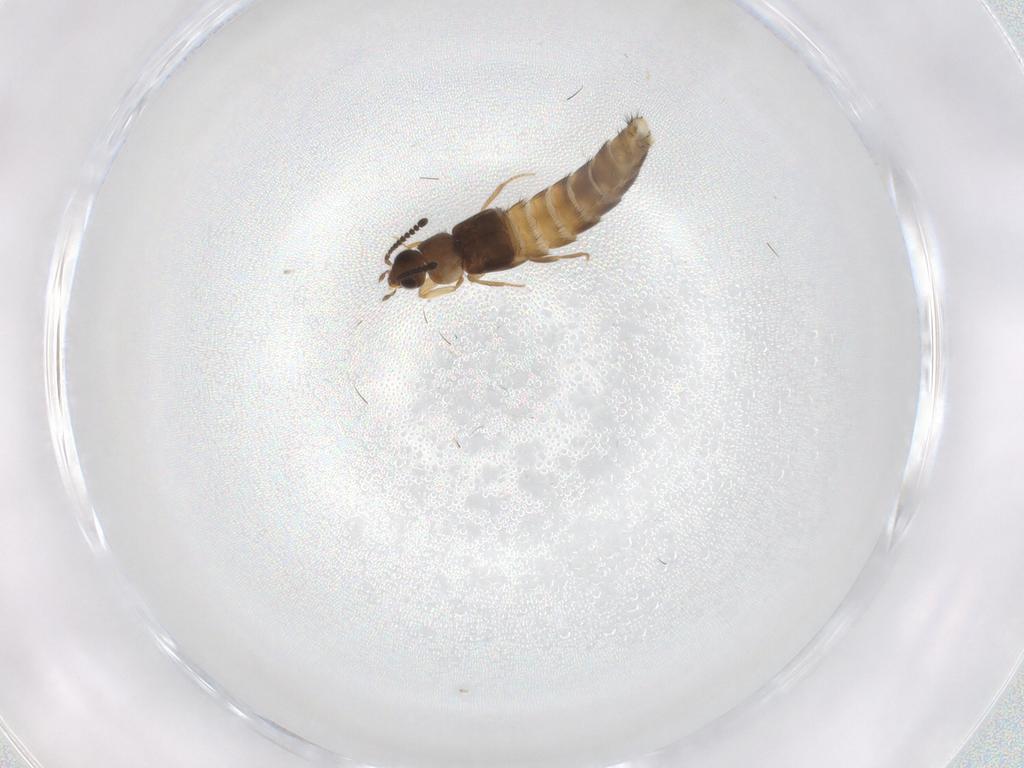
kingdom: Animalia
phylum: Arthropoda
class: Insecta
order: Coleoptera
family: Staphylinidae
